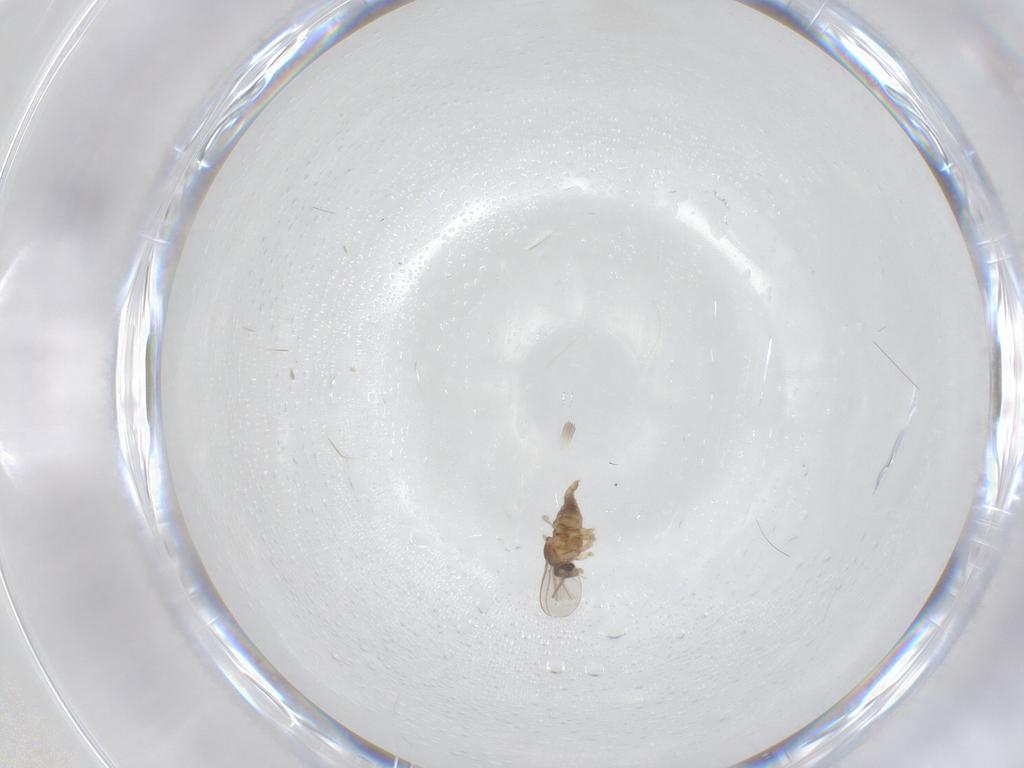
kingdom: Animalia
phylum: Arthropoda
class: Insecta
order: Diptera
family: Cecidomyiidae
